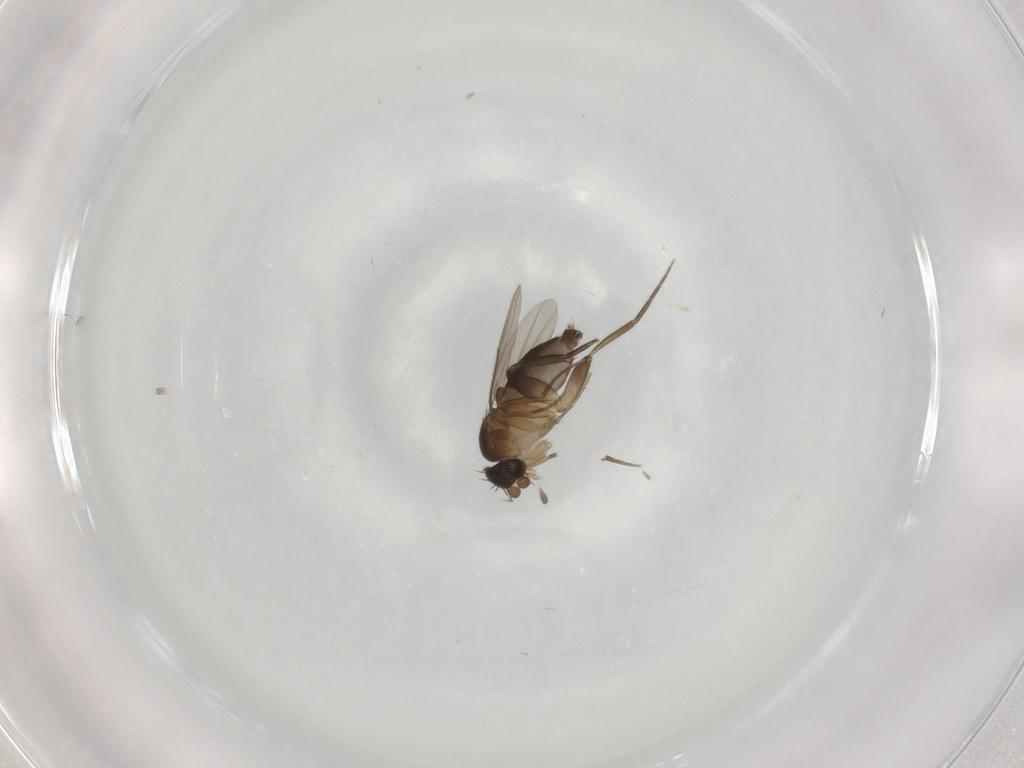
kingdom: Animalia
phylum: Arthropoda
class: Insecta
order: Diptera
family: Phoridae
